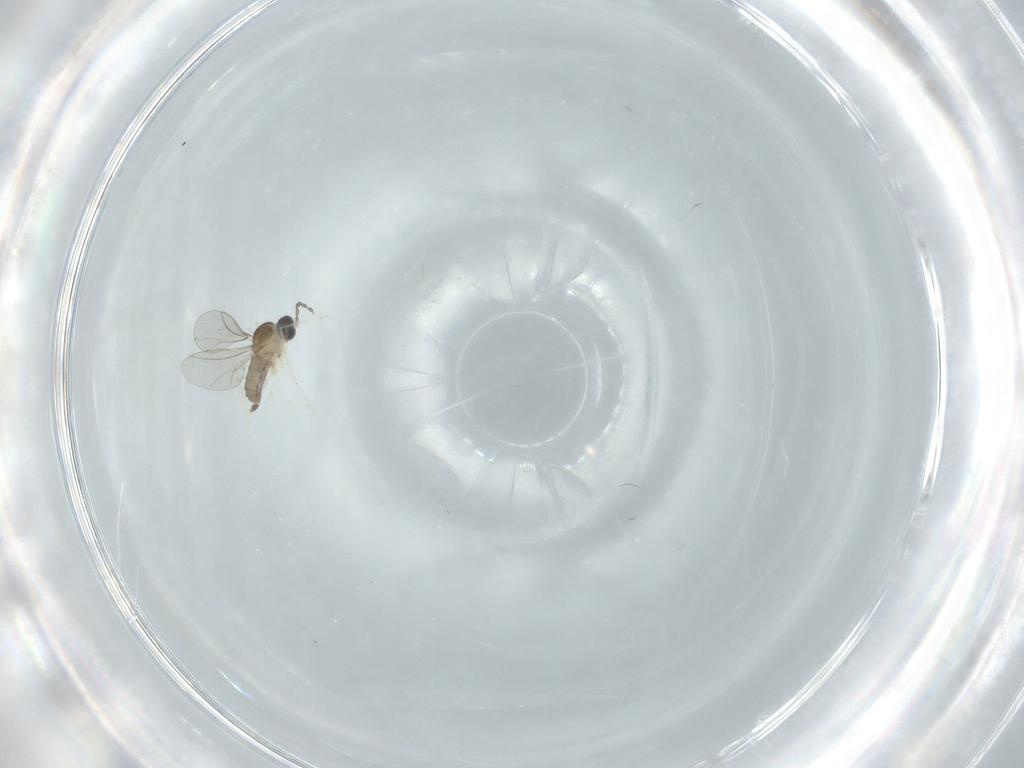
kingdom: Animalia
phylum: Arthropoda
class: Insecta
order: Diptera
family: Cecidomyiidae
